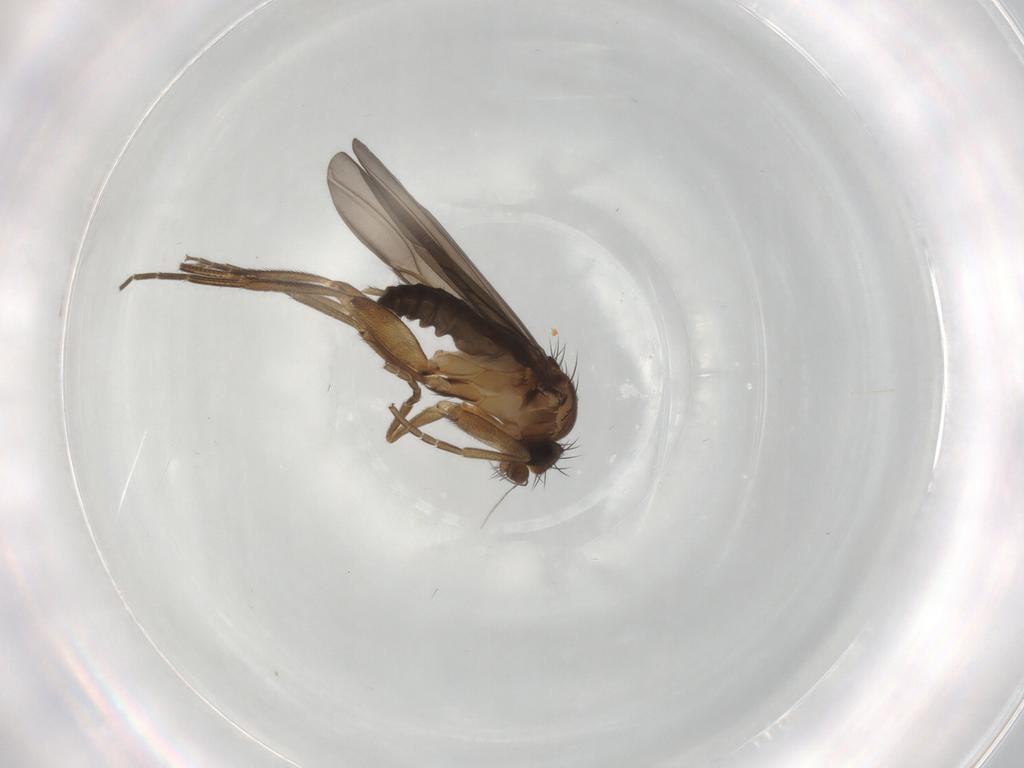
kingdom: Animalia
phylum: Arthropoda
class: Insecta
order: Diptera
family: Phoridae
